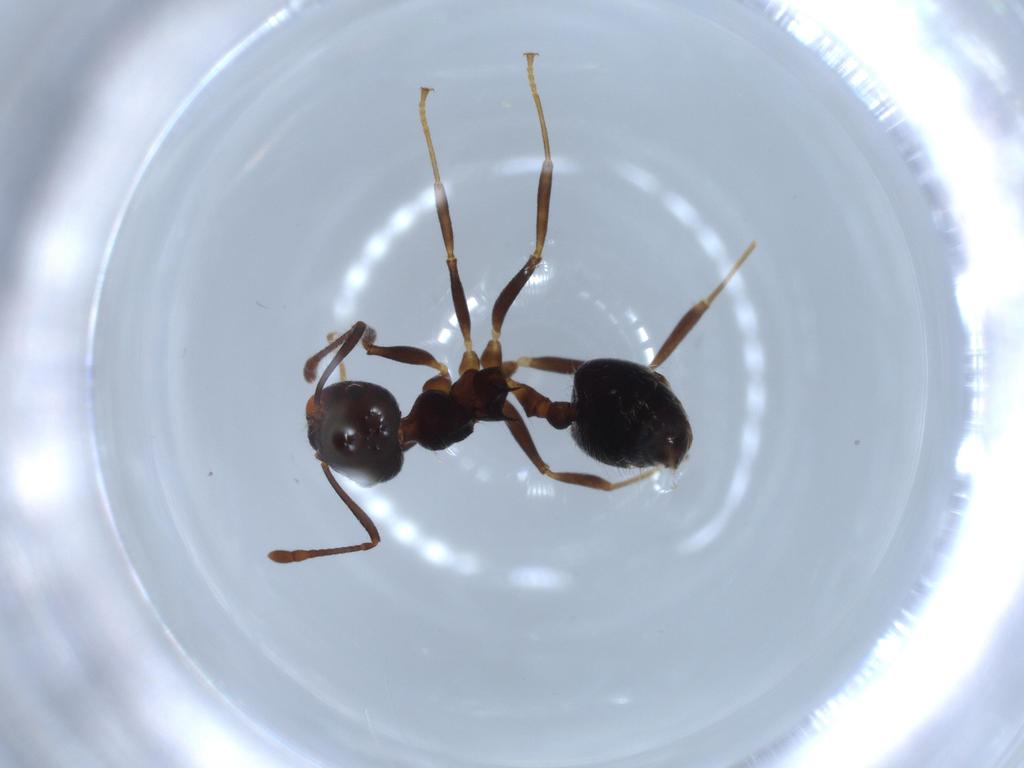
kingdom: Animalia
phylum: Arthropoda
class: Insecta
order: Hymenoptera
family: Formicidae
